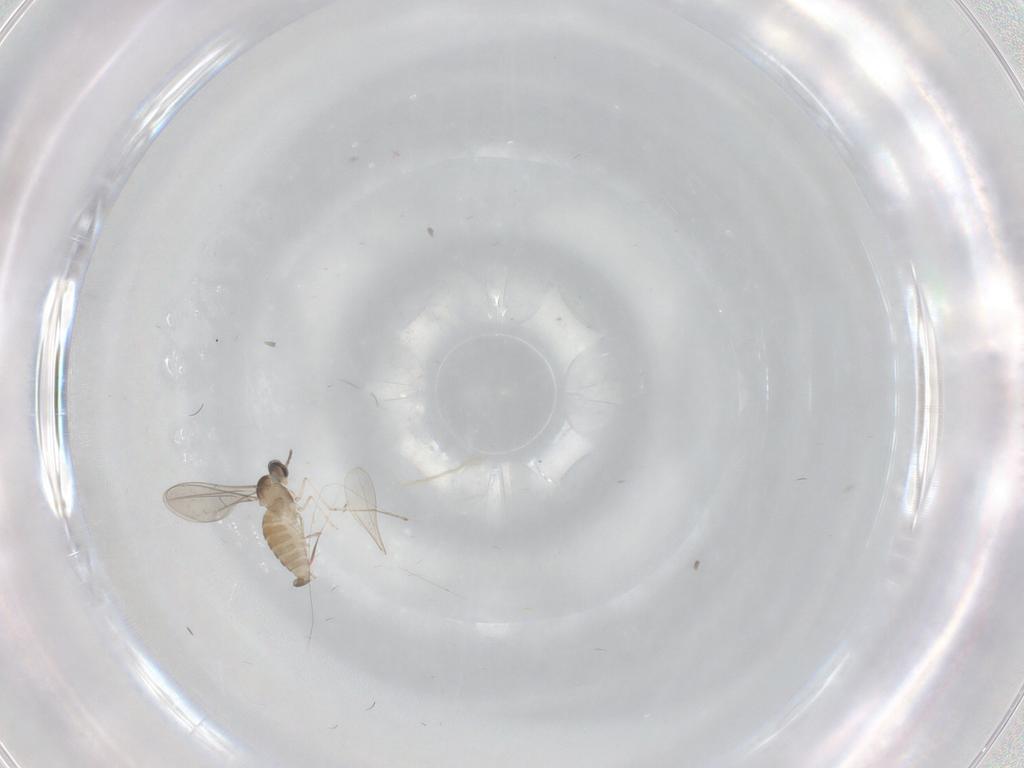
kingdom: Animalia
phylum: Arthropoda
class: Insecta
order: Diptera
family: Cecidomyiidae
